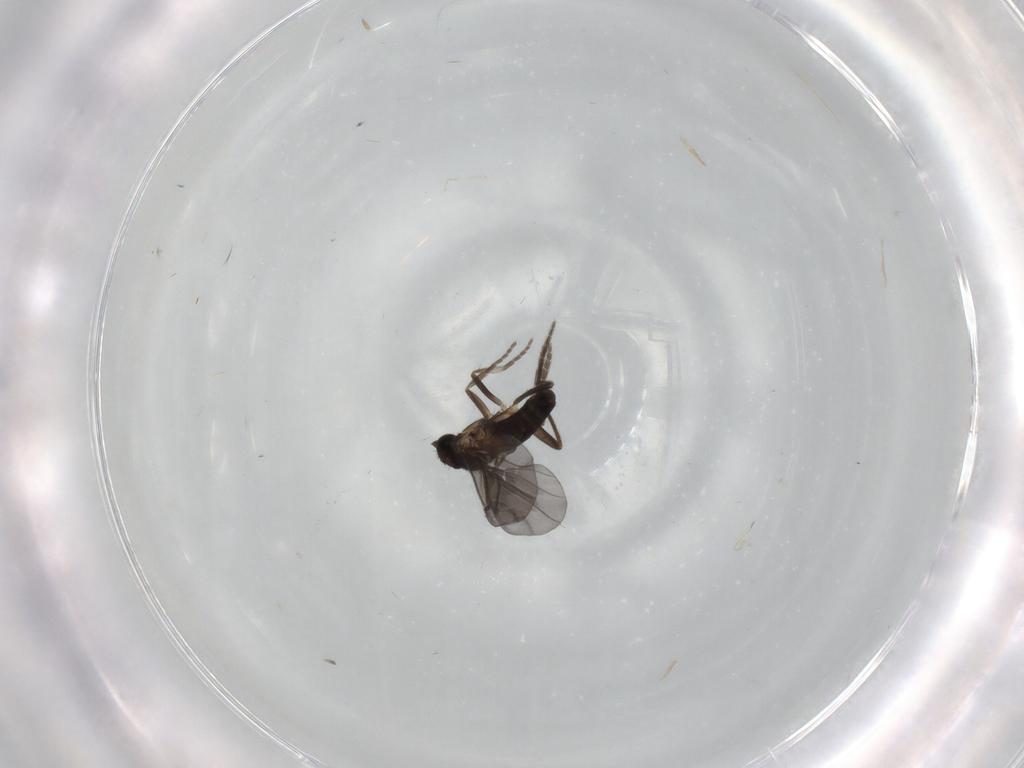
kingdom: Animalia
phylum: Arthropoda
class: Insecta
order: Diptera
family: Phoridae
